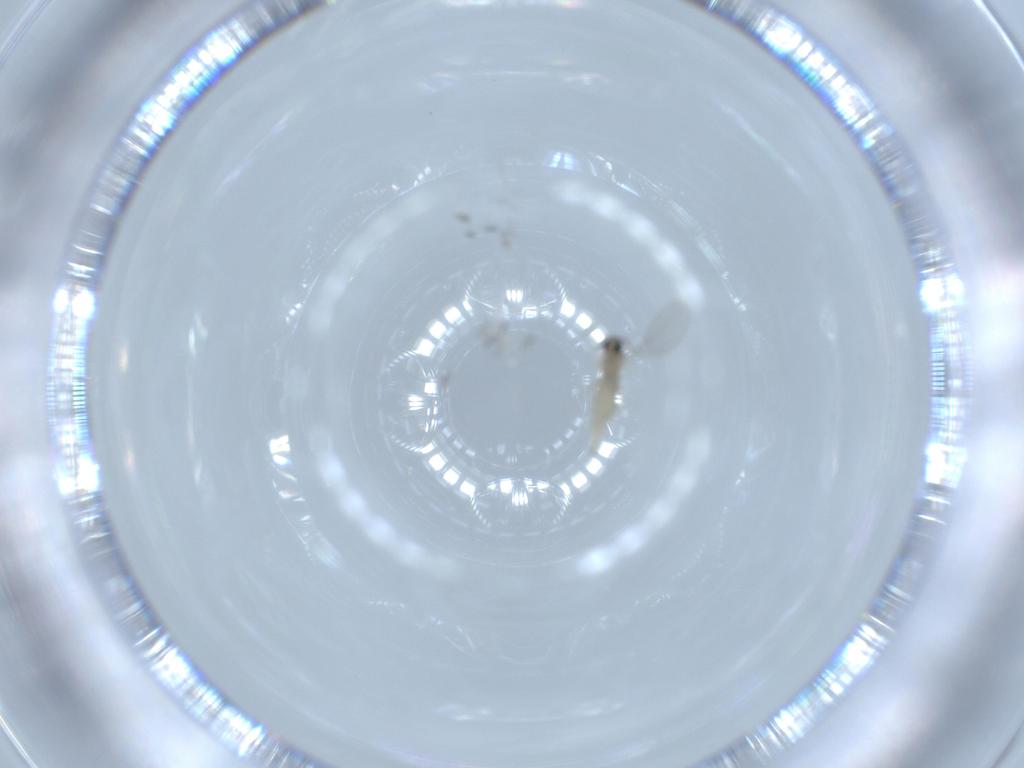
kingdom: Animalia
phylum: Arthropoda
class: Insecta
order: Diptera
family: Cecidomyiidae
